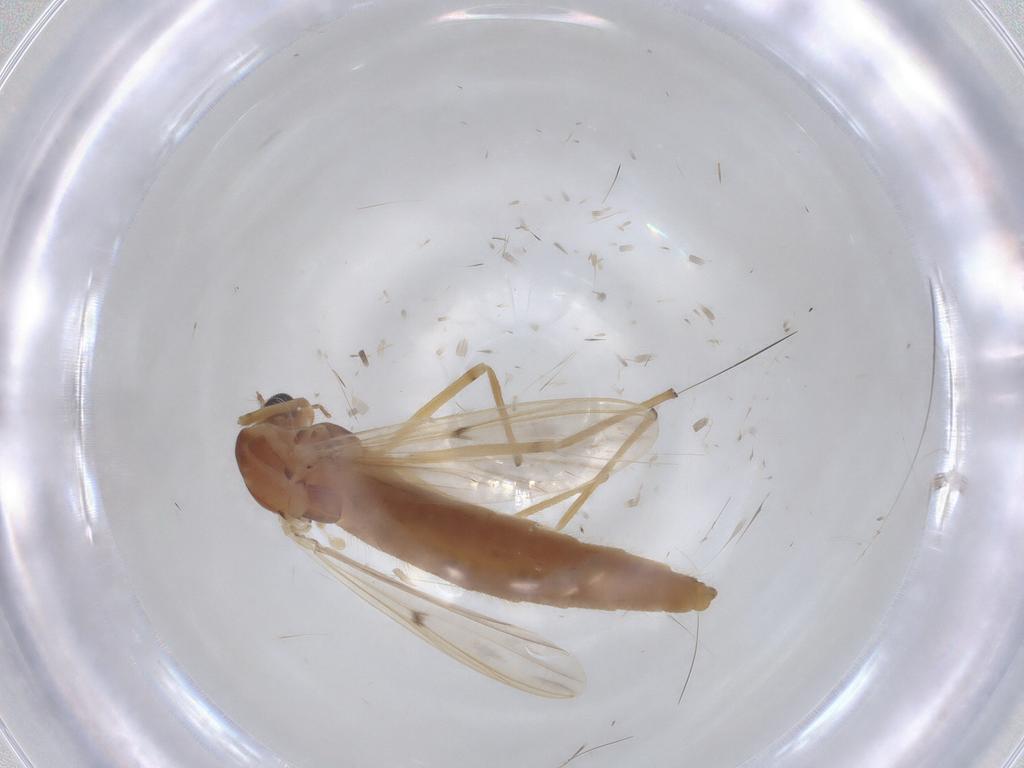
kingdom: Animalia
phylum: Arthropoda
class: Insecta
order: Diptera
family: Chironomidae
